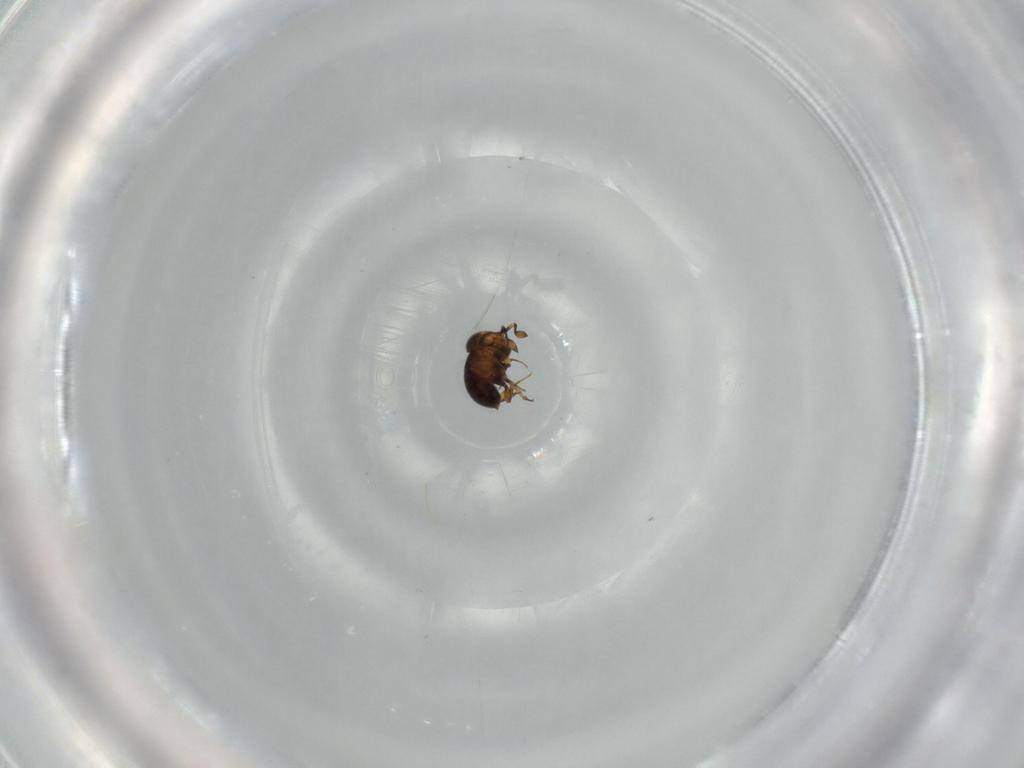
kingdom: Animalia
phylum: Arthropoda
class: Insecta
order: Hymenoptera
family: Scelionidae
